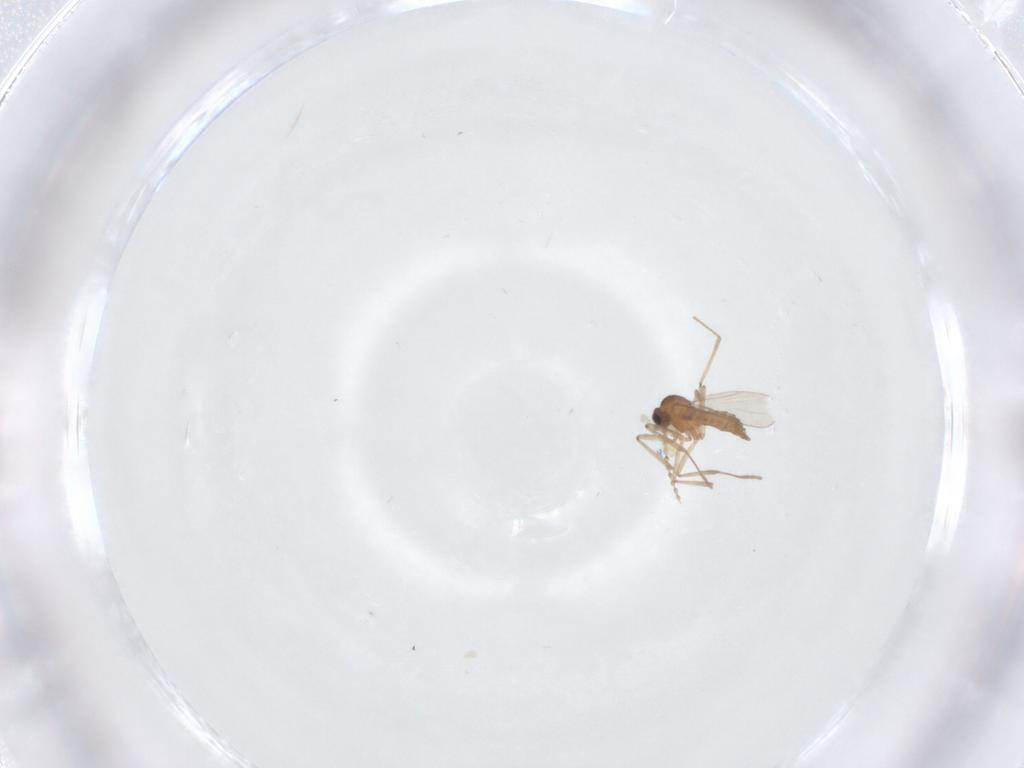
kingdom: Animalia
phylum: Arthropoda
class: Insecta
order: Diptera
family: Cecidomyiidae
